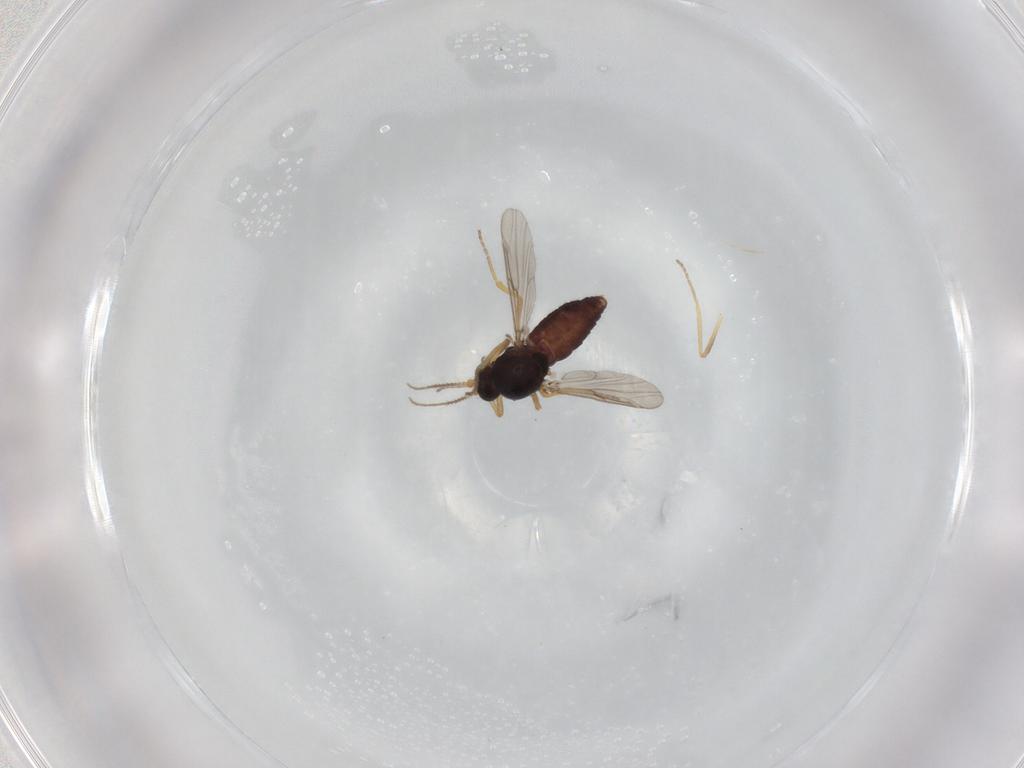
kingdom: Animalia
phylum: Arthropoda
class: Insecta
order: Diptera
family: Ceratopogonidae
